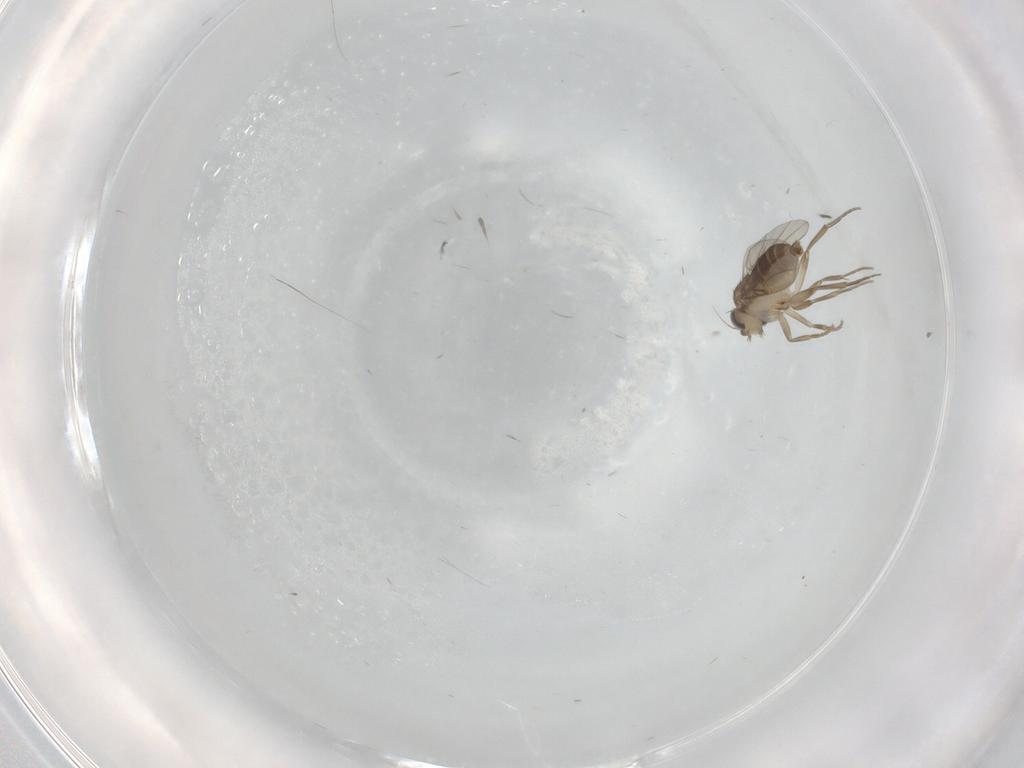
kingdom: Animalia
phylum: Arthropoda
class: Insecta
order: Diptera
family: Phoridae
